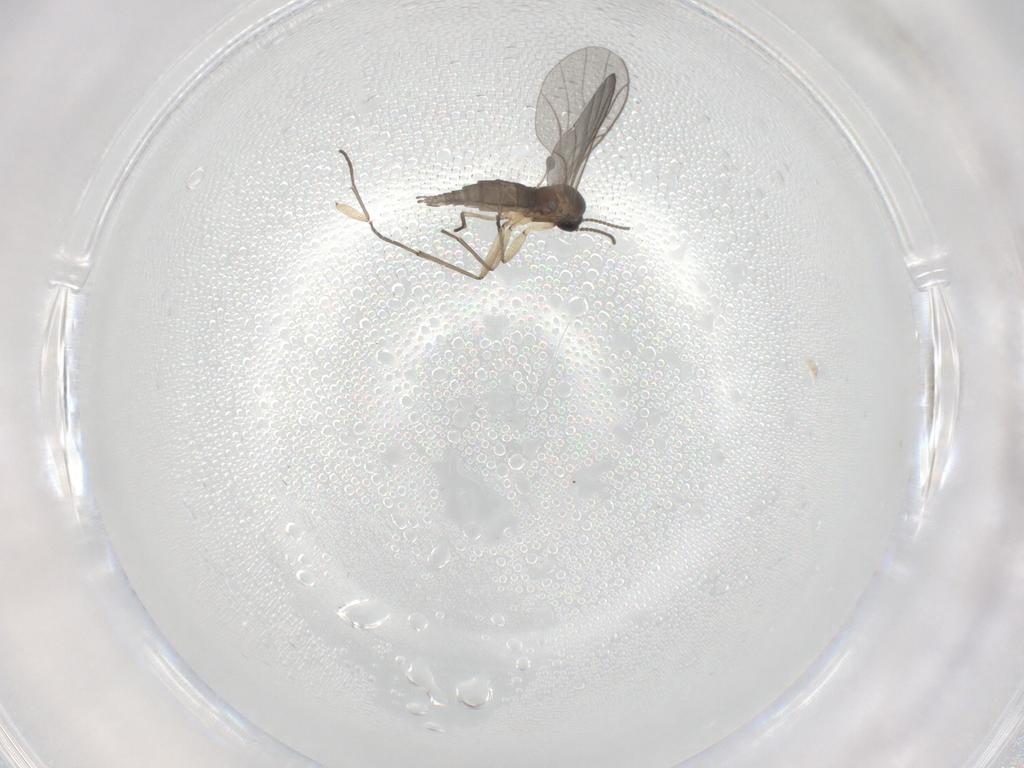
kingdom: Animalia
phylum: Arthropoda
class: Insecta
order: Diptera
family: Sciaridae
